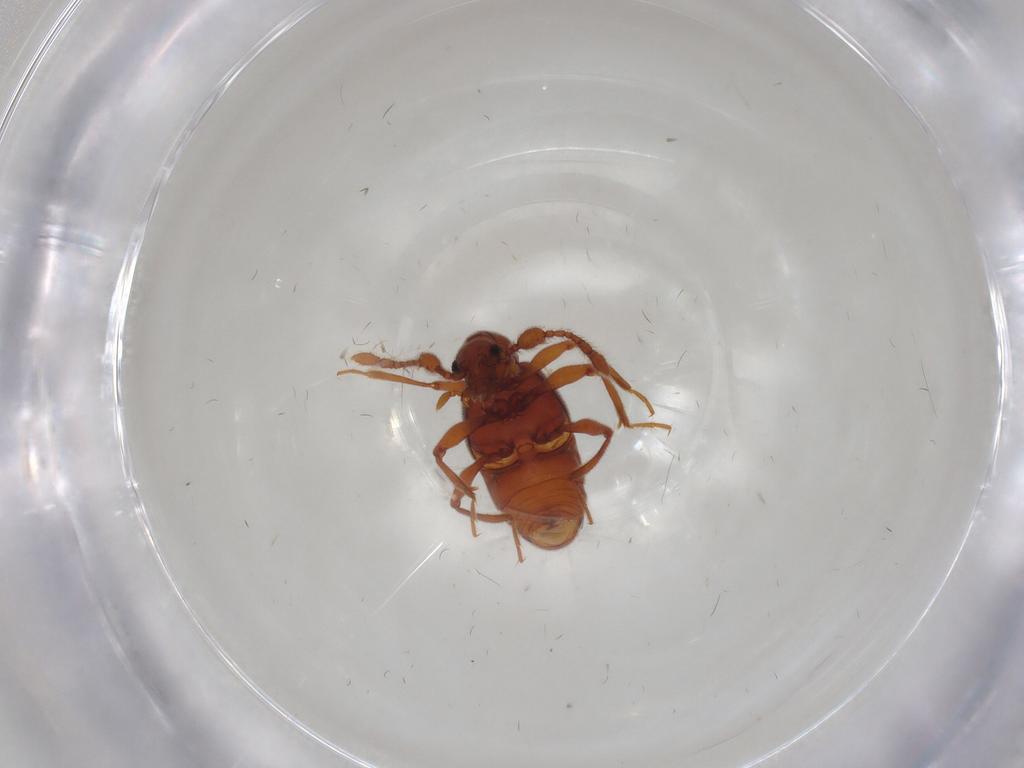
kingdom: Animalia
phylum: Arthropoda
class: Insecta
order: Coleoptera
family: Staphylinidae
